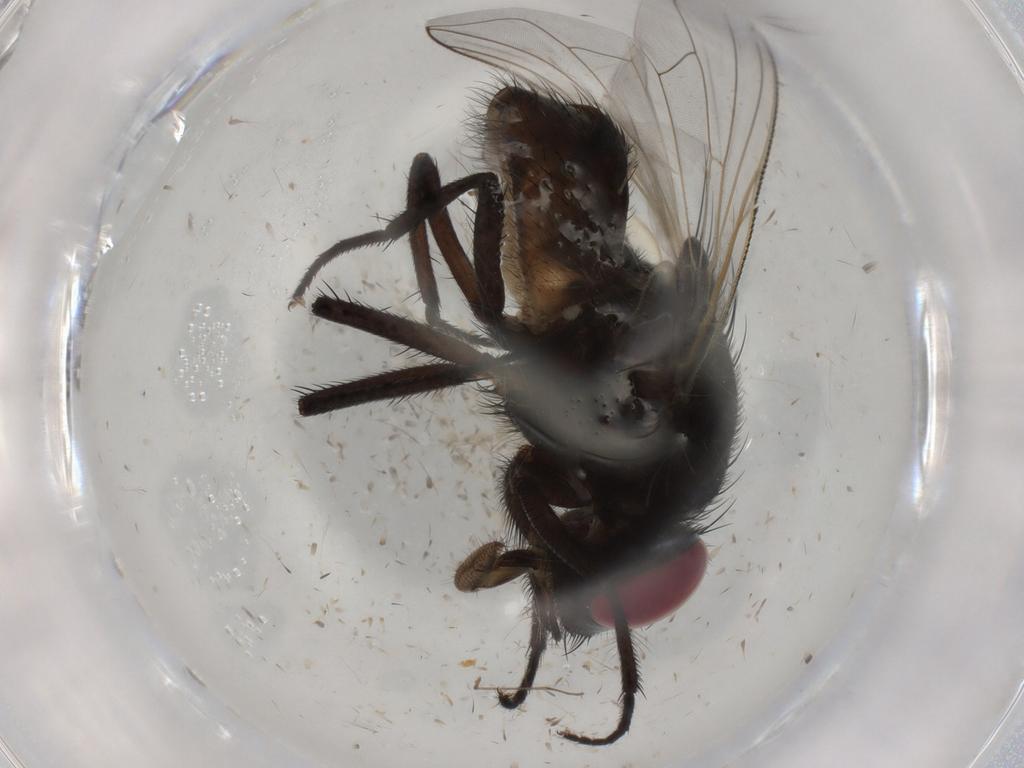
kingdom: Animalia
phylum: Arthropoda
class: Insecta
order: Diptera
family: Muscidae
